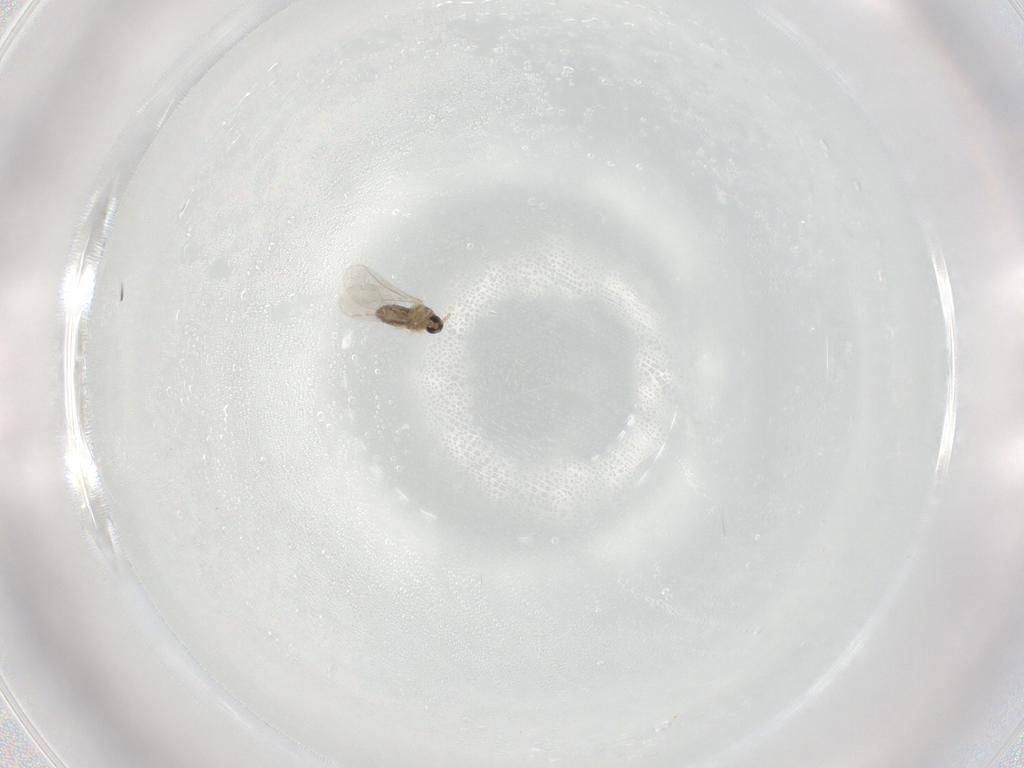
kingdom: Animalia
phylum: Arthropoda
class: Insecta
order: Diptera
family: Cecidomyiidae
